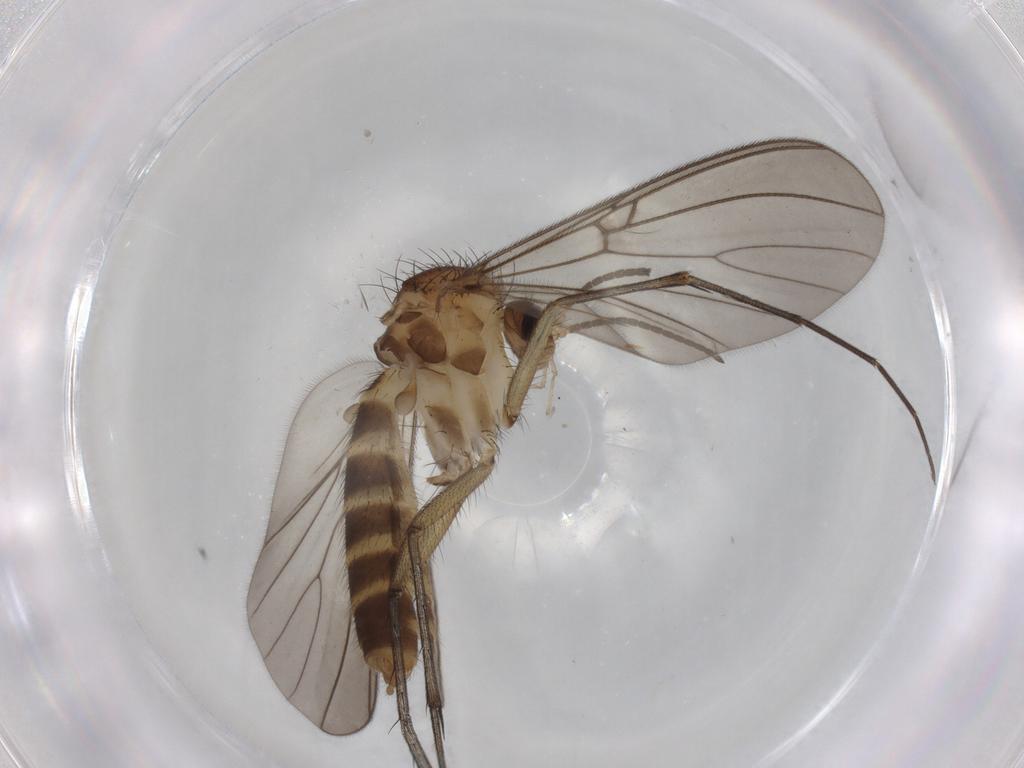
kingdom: Animalia
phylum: Arthropoda
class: Insecta
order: Diptera
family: Mycetophilidae
